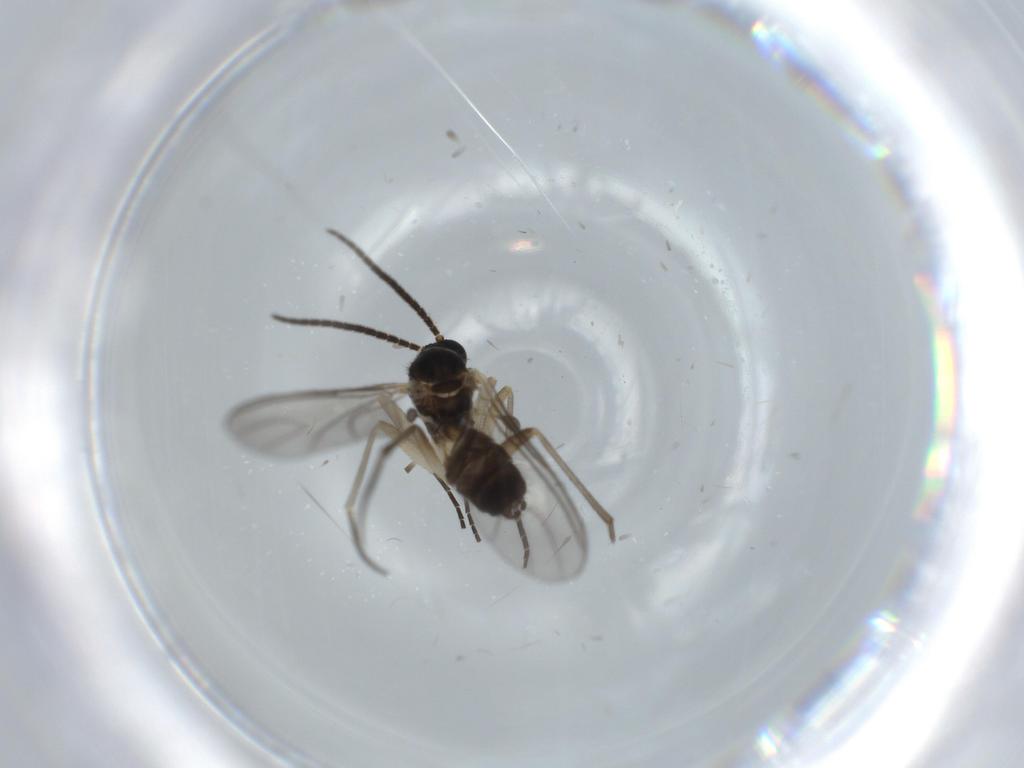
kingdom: Animalia
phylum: Arthropoda
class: Insecta
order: Diptera
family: Cecidomyiidae
